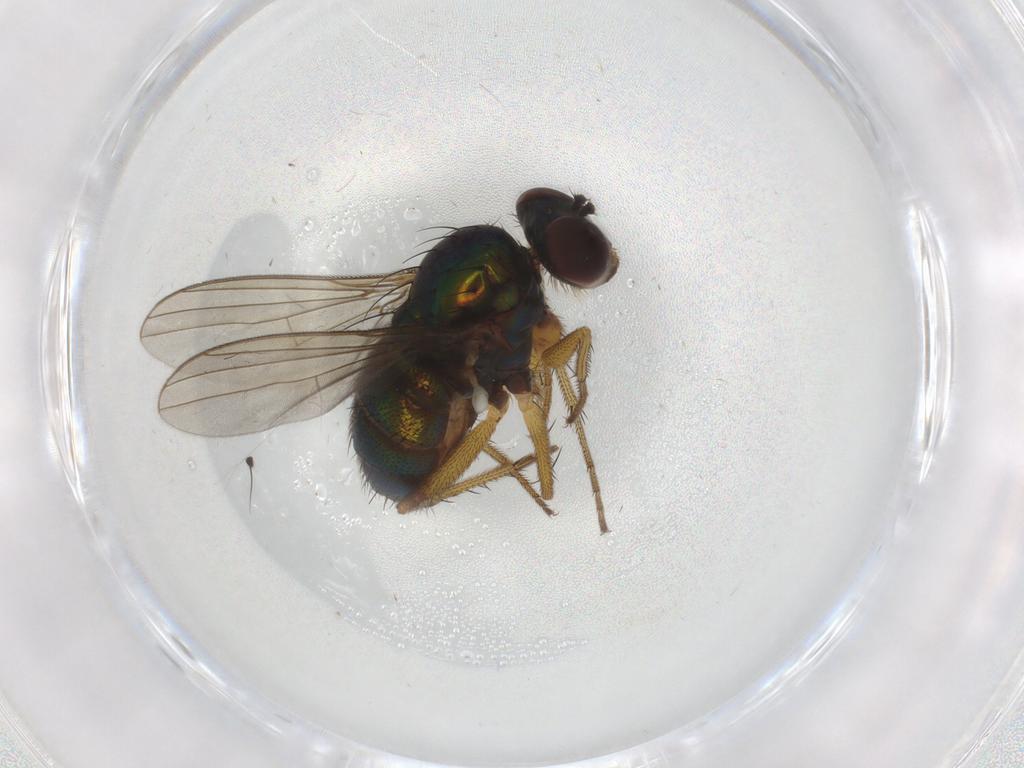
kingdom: Animalia
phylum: Arthropoda
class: Insecta
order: Diptera
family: Dolichopodidae
